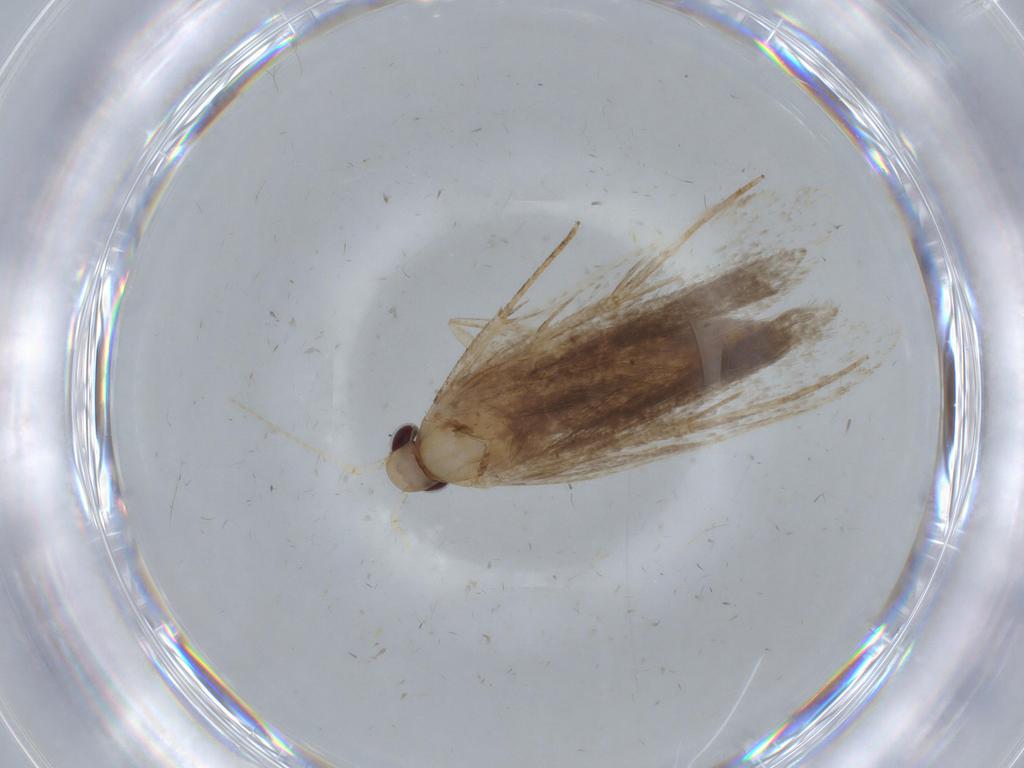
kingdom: Animalia
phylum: Arthropoda
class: Insecta
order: Lepidoptera
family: Gelechiidae
